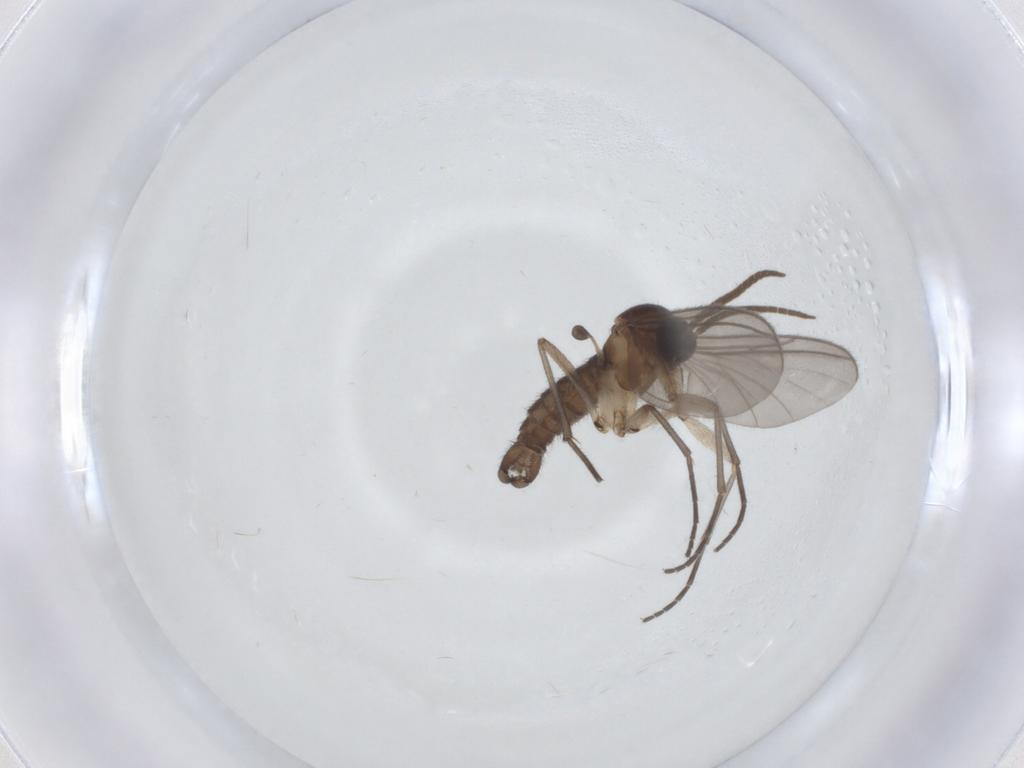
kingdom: Animalia
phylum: Arthropoda
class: Insecta
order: Diptera
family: Chironomidae
